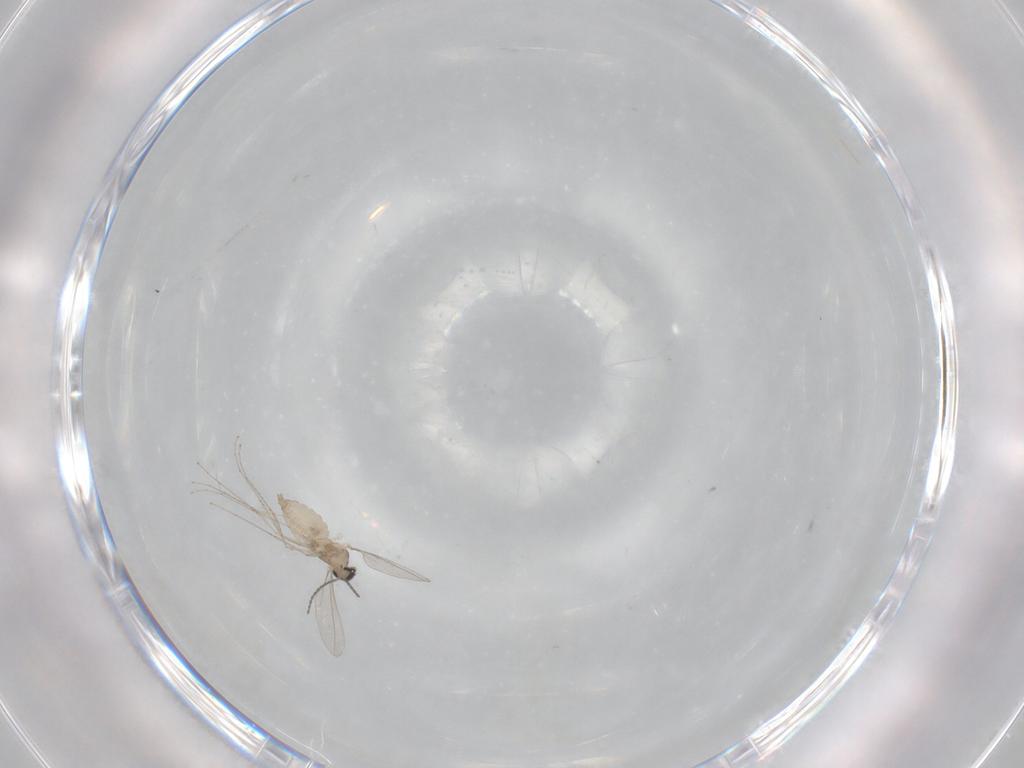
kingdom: Animalia
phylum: Arthropoda
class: Insecta
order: Diptera
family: Cecidomyiidae
